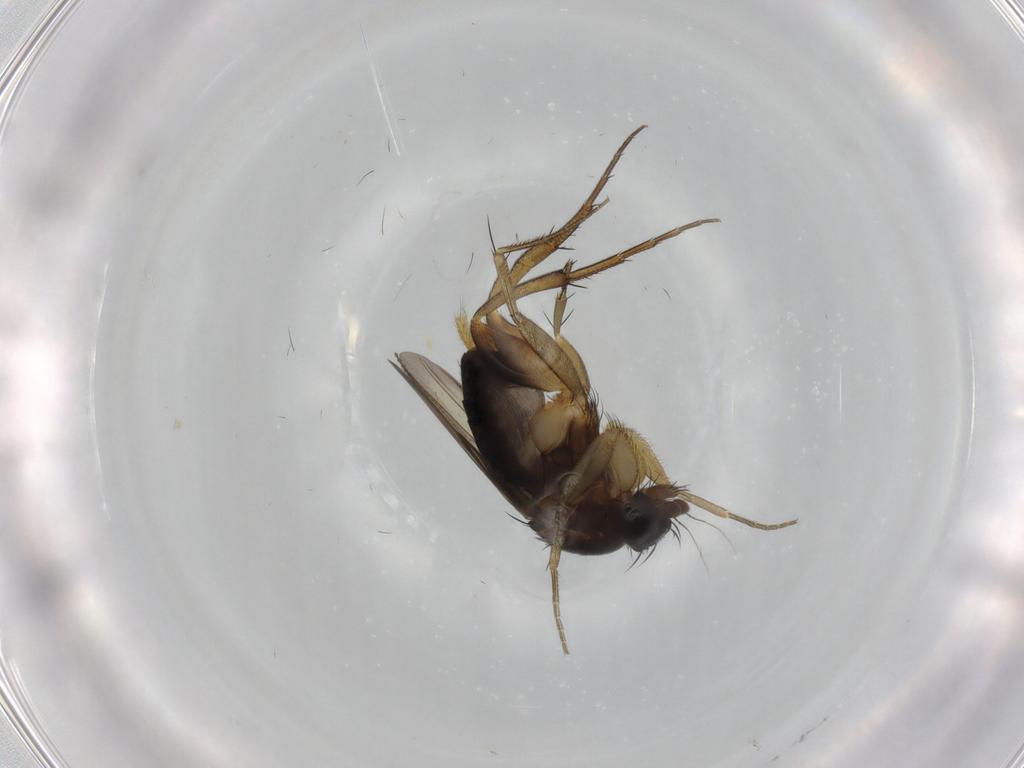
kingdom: Animalia
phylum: Arthropoda
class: Insecta
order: Diptera
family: Phoridae
